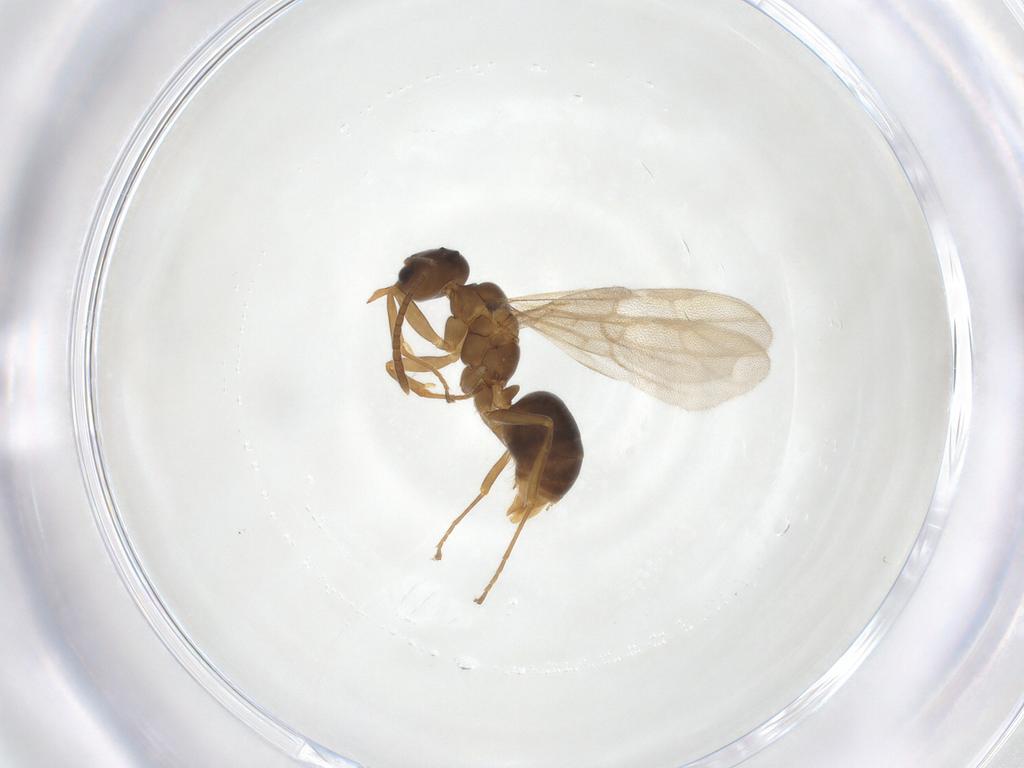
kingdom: Animalia
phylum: Arthropoda
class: Insecta
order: Hymenoptera
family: Formicidae
